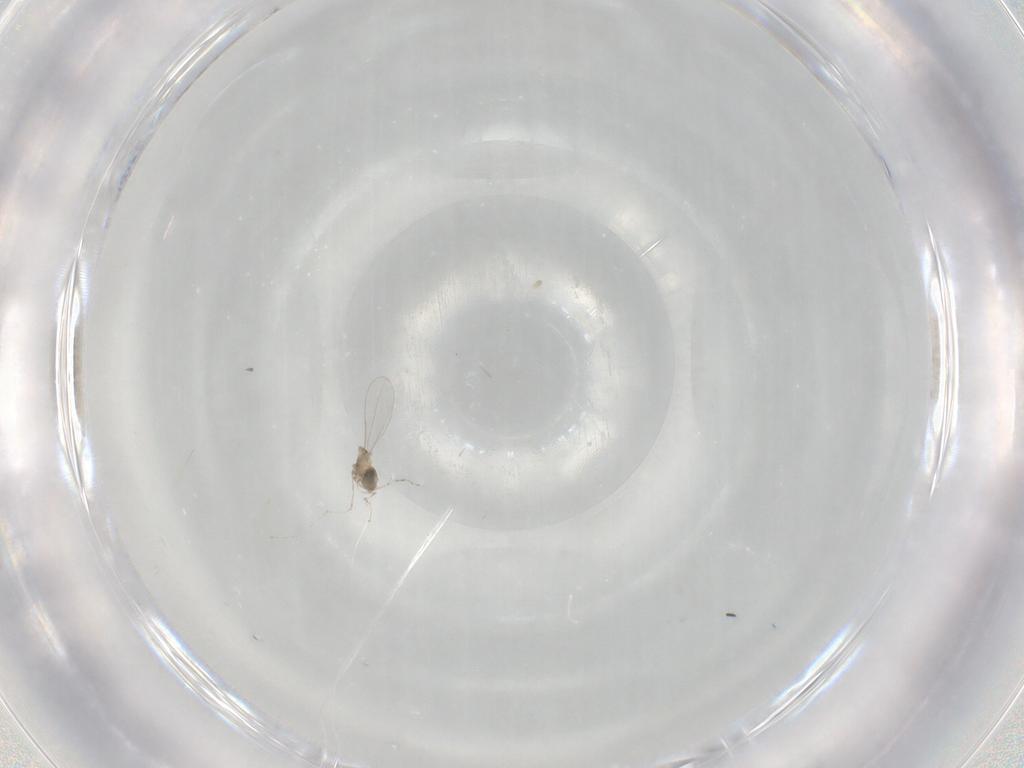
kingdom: Animalia
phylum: Arthropoda
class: Insecta
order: Diptera
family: Cecidomyiidae
